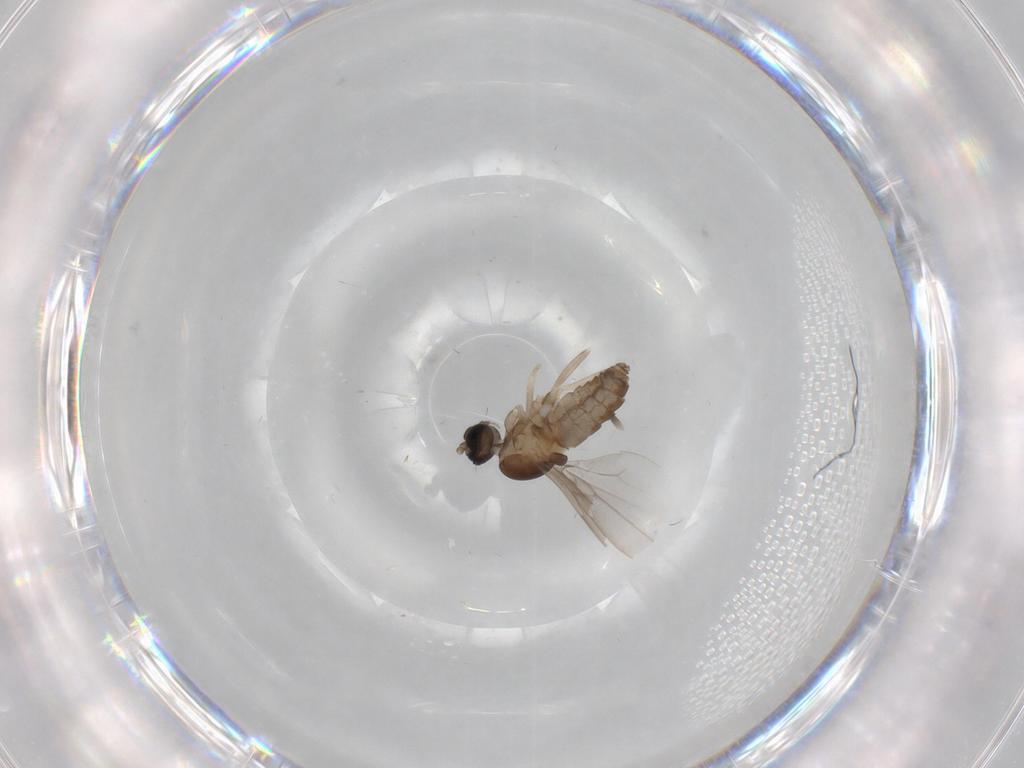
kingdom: Animalia
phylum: Arthropoda
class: Insecta
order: Diptera
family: Cecidomyiidae
